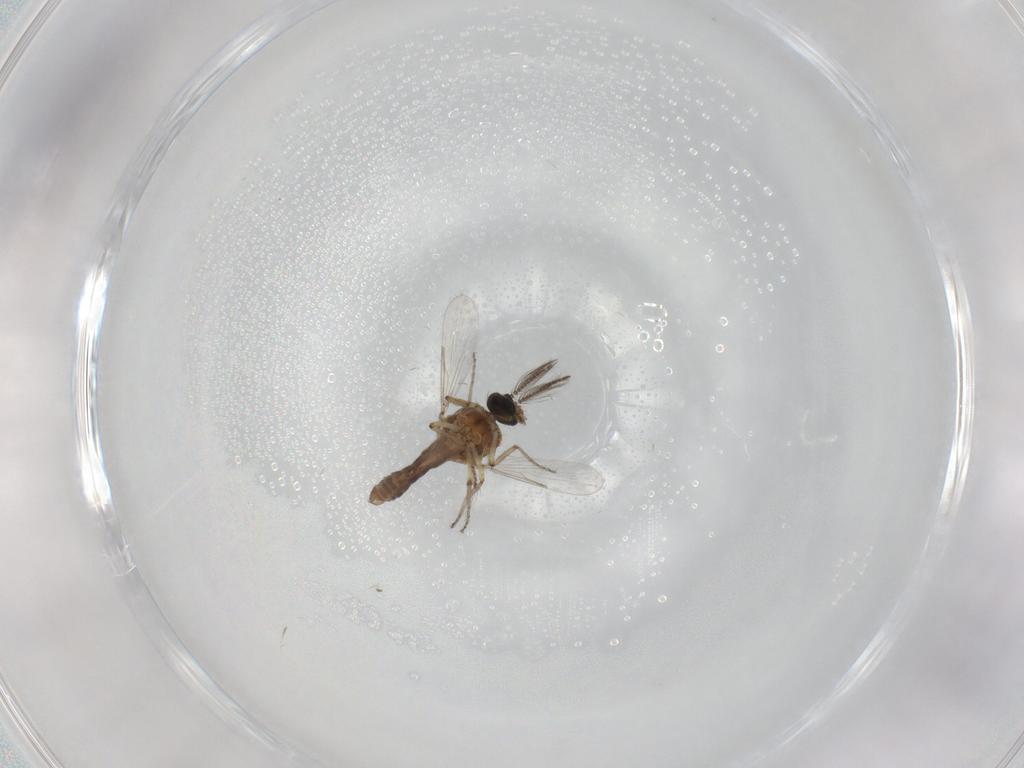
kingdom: Animalia
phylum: Arthropoda
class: Insecta
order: Diptera
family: Ceratopogonidae
